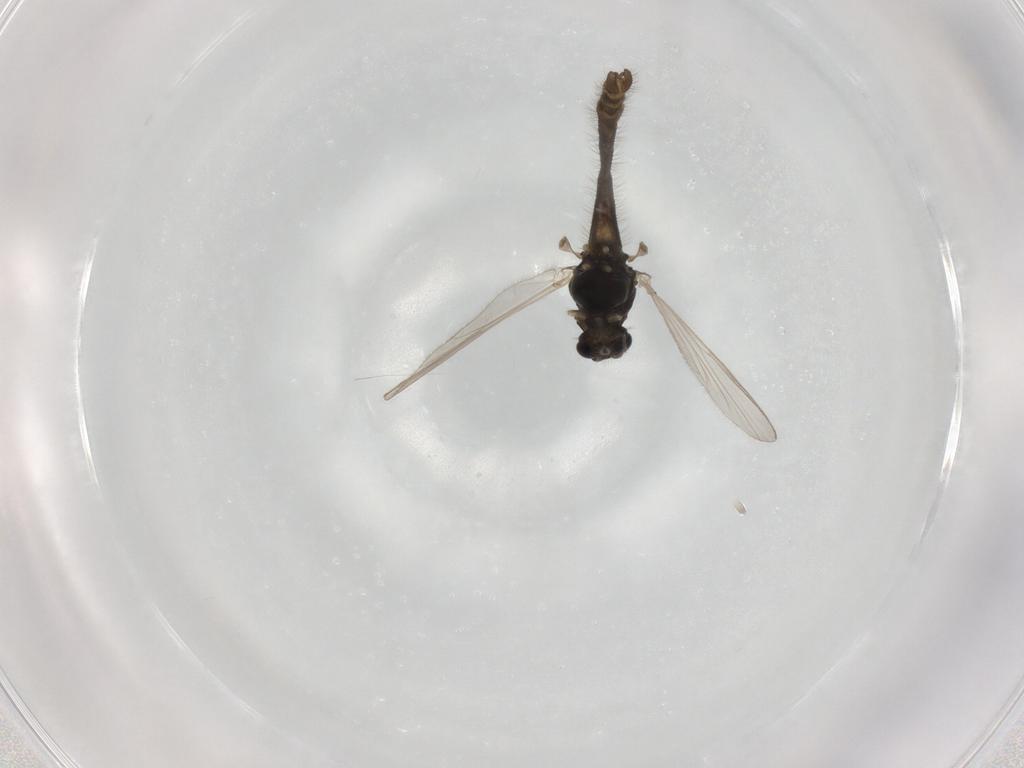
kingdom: Animalia
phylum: Arthropoda
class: Insecta
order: Diptera
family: Chironomidae
